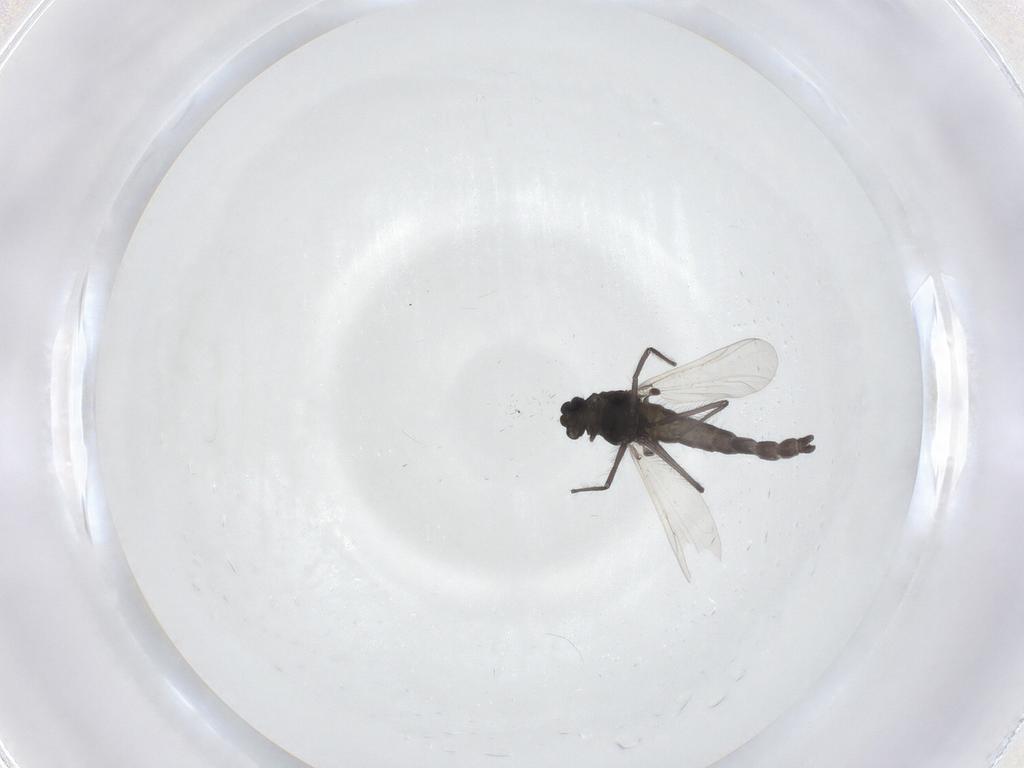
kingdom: Animalia
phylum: Arthropoda
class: Insecta
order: Diptera
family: Chironomidae
